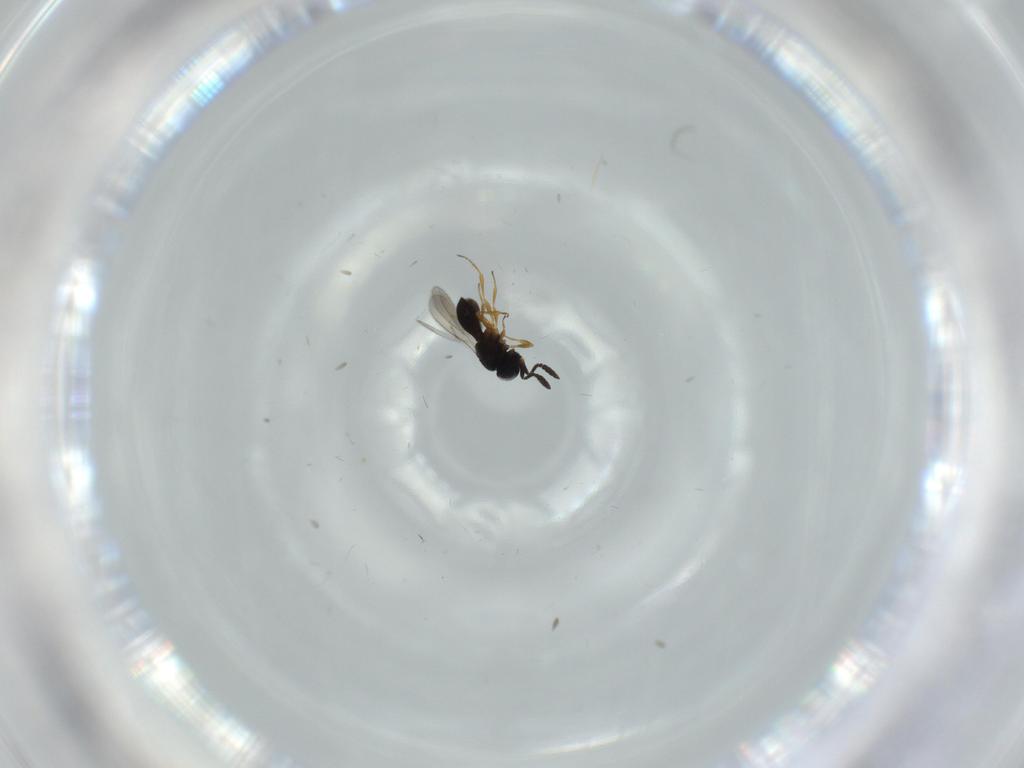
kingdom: Animalia
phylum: Arthropoda
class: Insecta
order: Hymenoptera
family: Scelionidae
